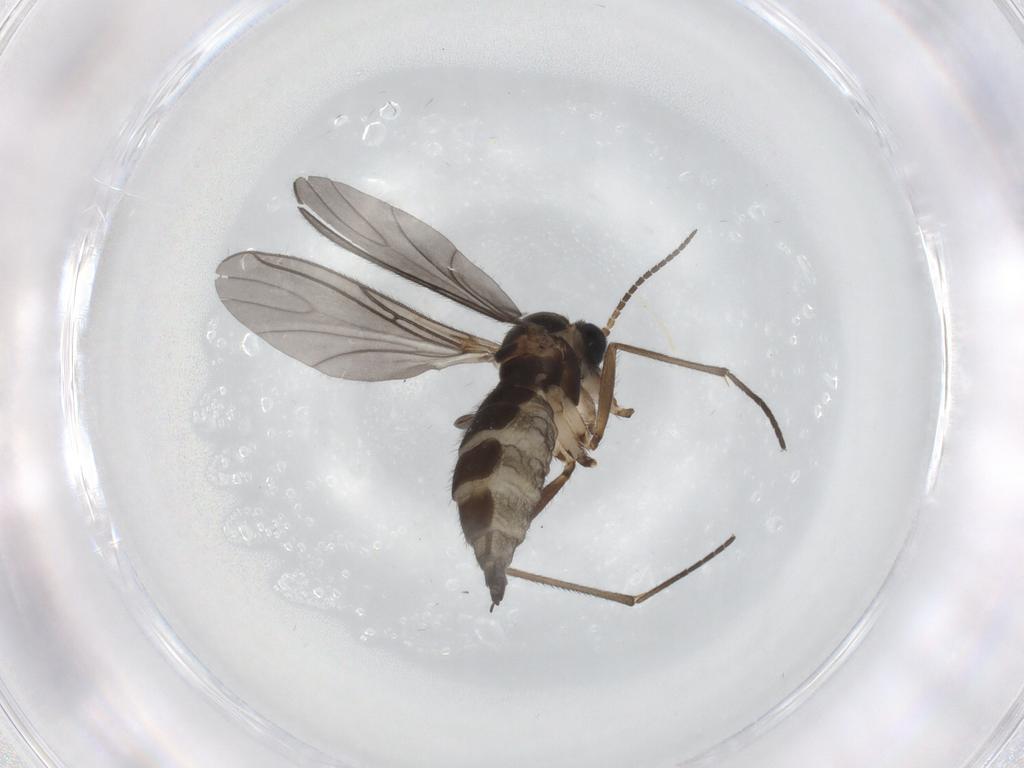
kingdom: Animalia
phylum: Arthropoda
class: Insecta
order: Diptera
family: Sciaridae
